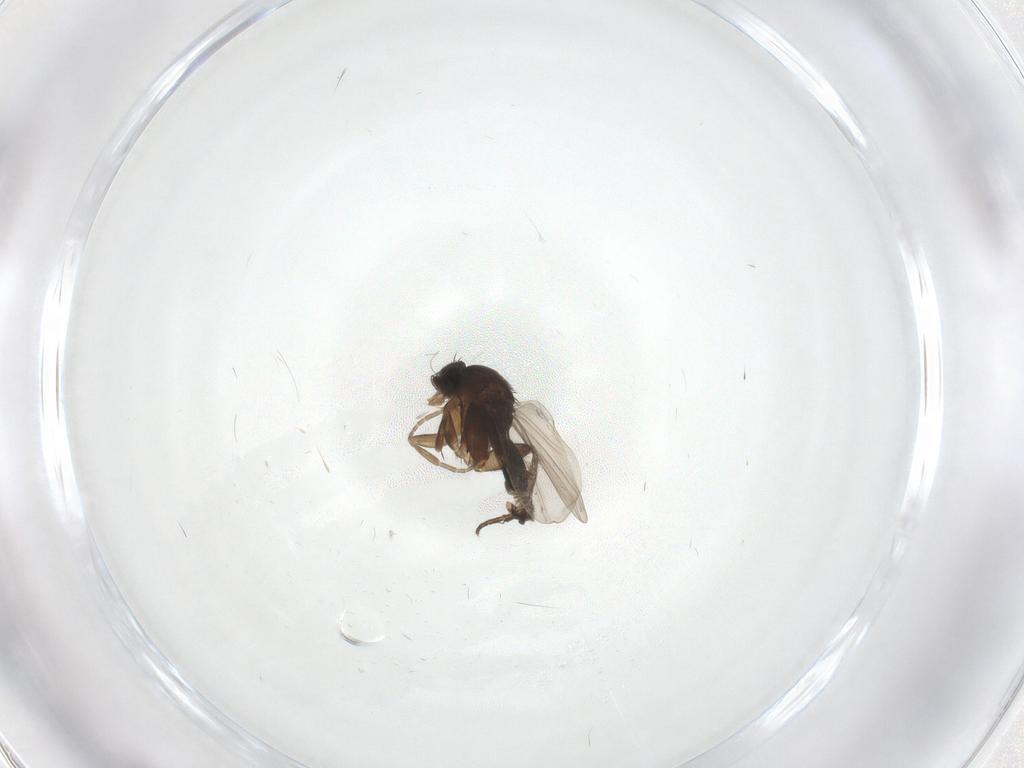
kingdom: Animalia
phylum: Arthropoda
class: Insecta
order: Diptera
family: Phoridae
